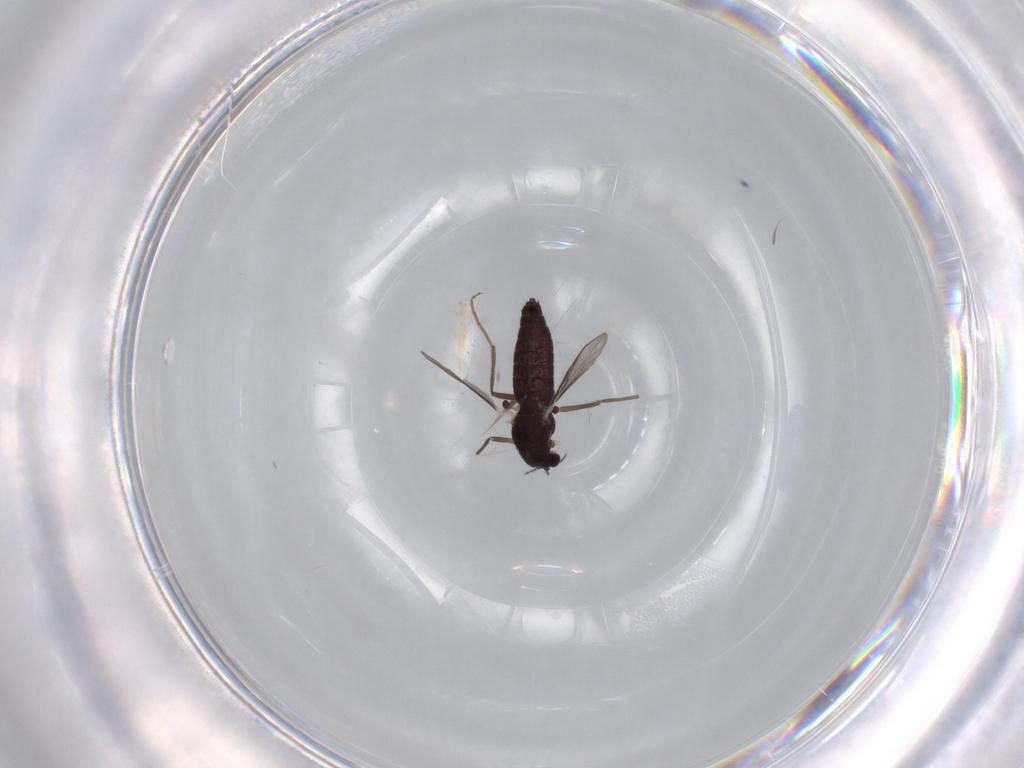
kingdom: Animalia
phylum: Arthropoda
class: Insecta
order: Diptera
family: Chironomidae
